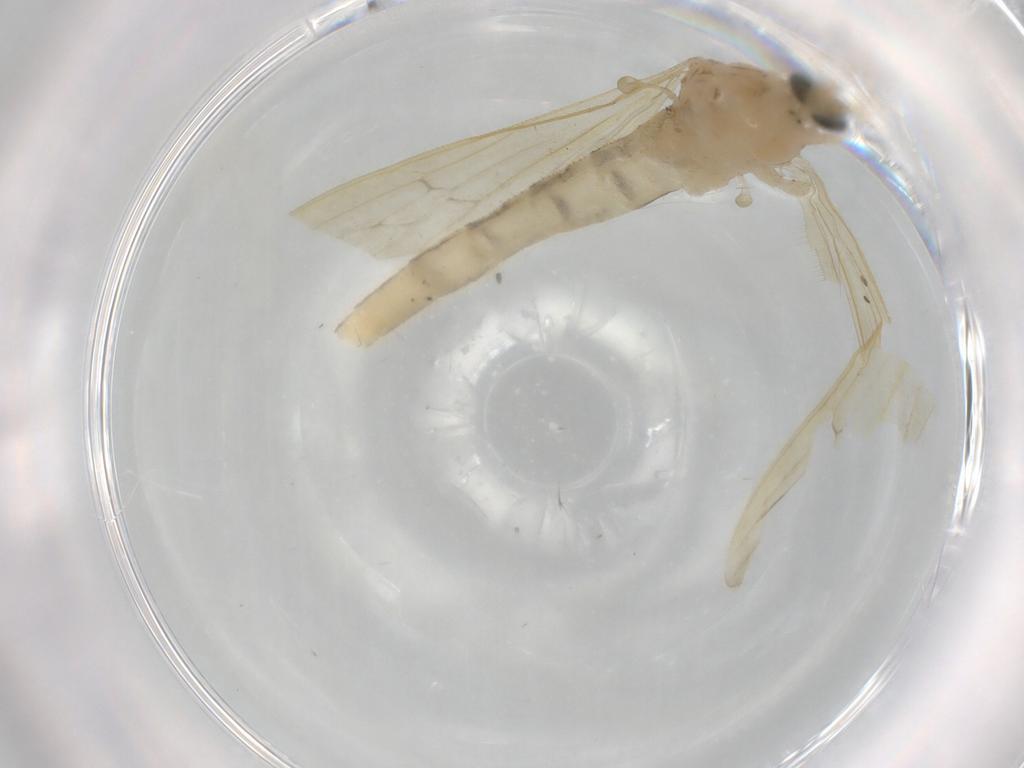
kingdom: Animalia
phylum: Arthropoda
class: Insecta
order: Diptera
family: Limoniidae
